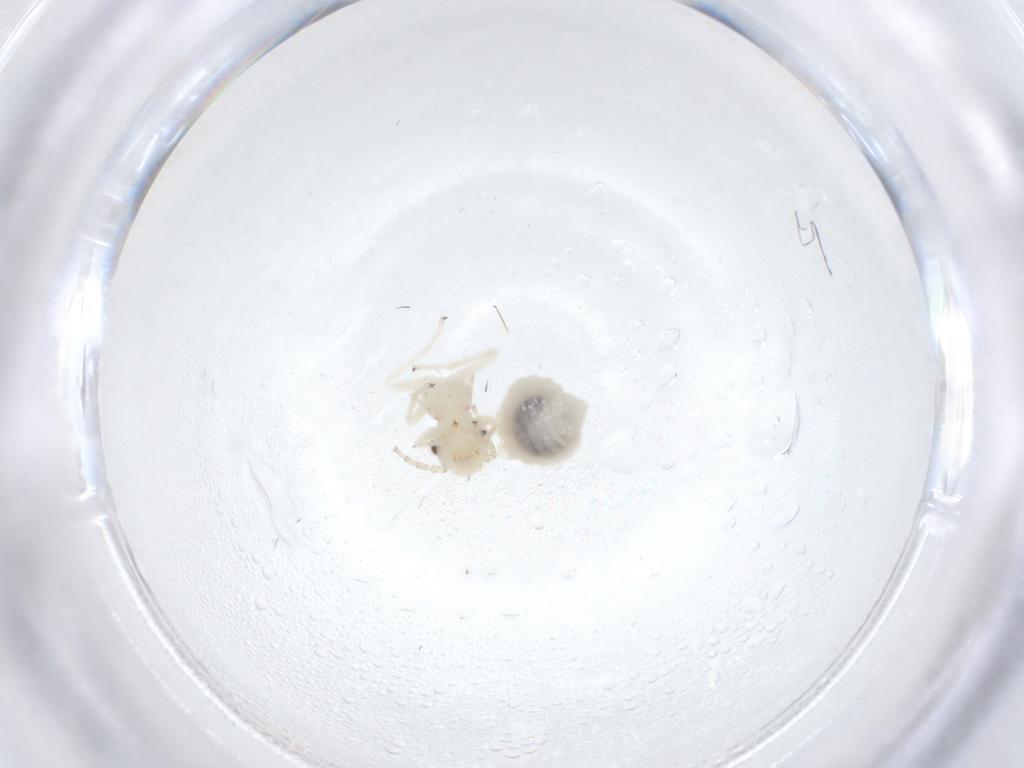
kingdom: Animalia
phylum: Arthropoda
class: Insecta
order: Psocodea
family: Amphipsocidae
